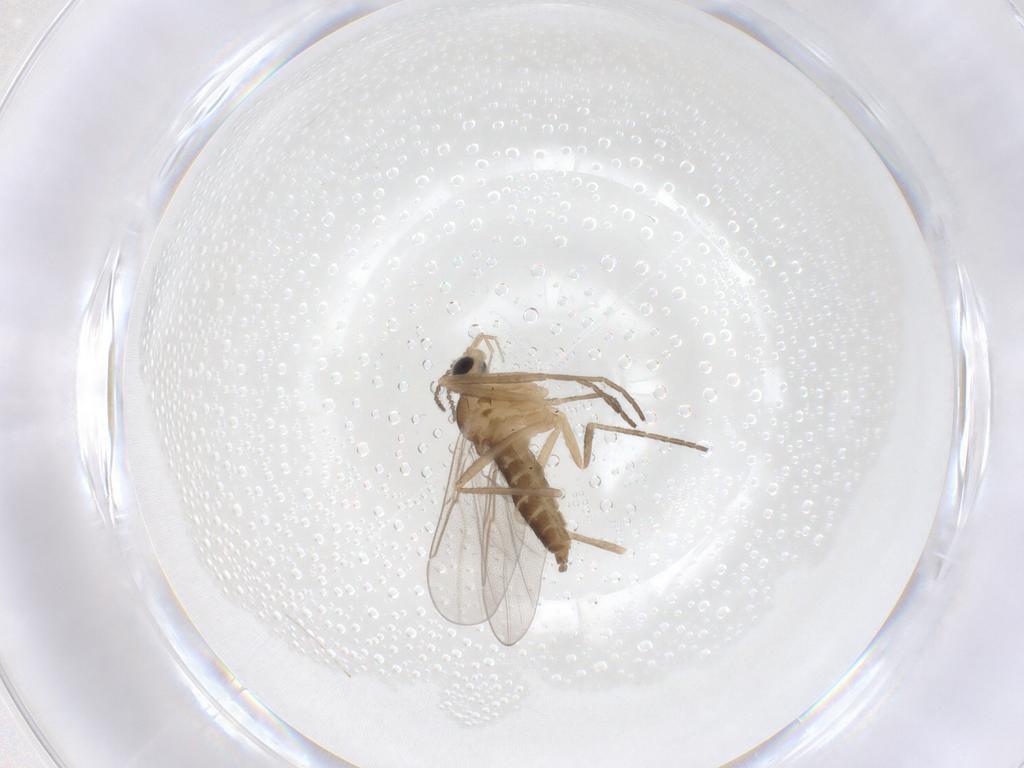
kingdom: Animalia
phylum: Arthropoda
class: Insecta
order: Diptera
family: Cecidomyiidae
